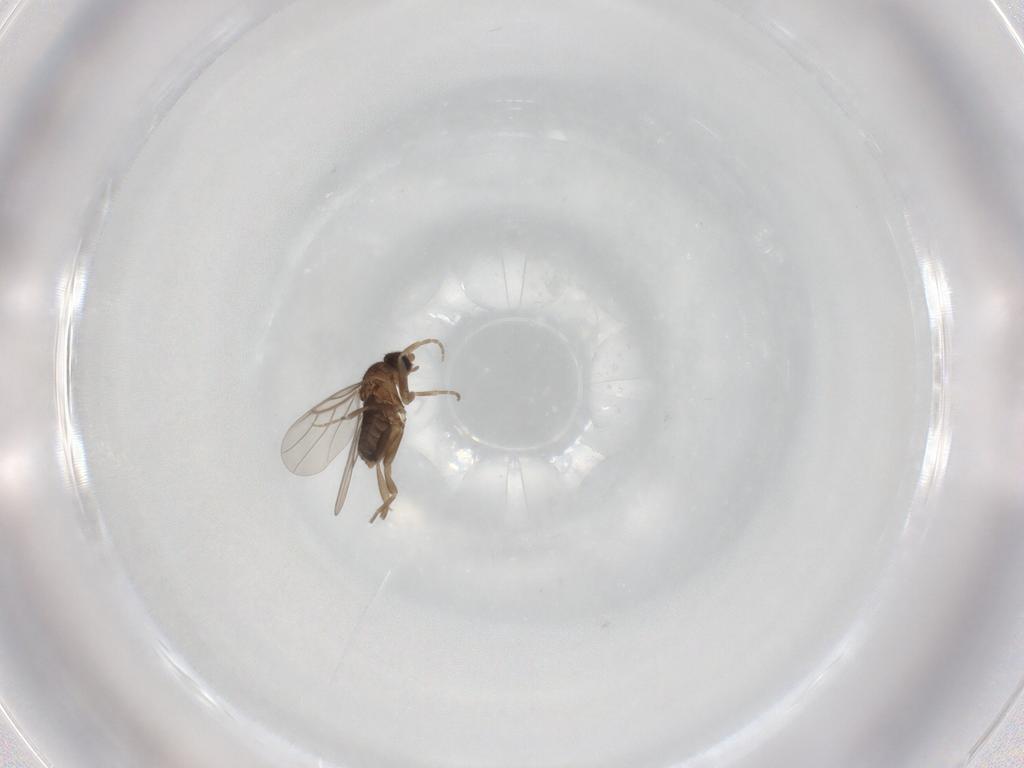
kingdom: Animalia
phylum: Arthropoda
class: Insecta
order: Diptera
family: Phoridae
